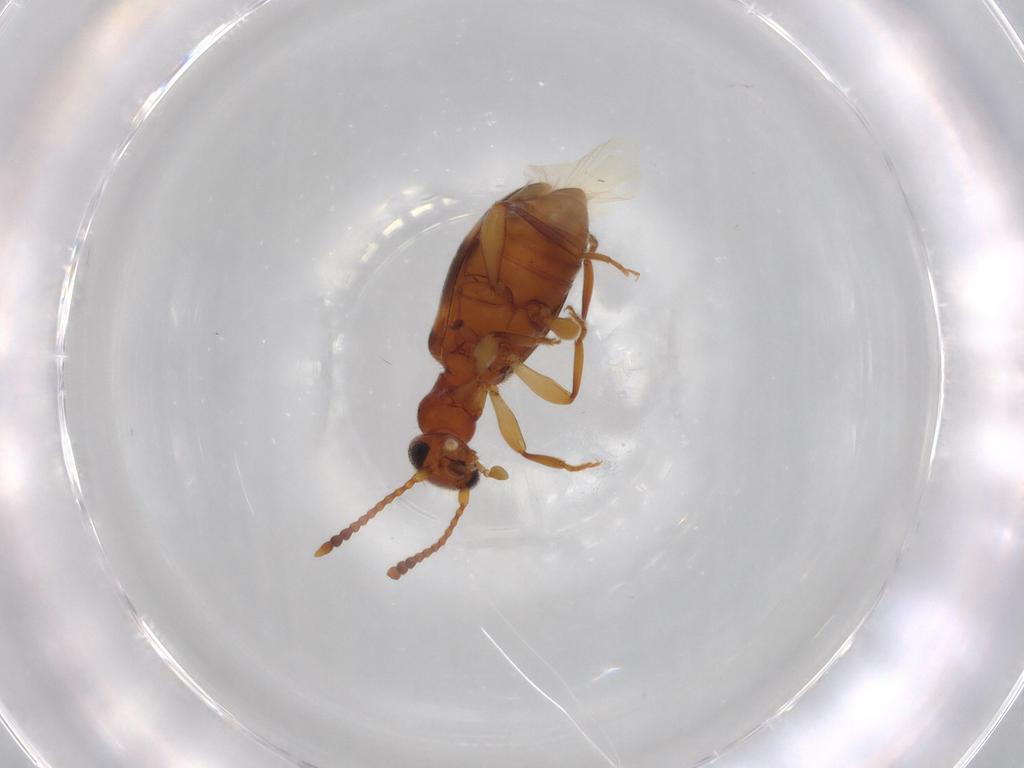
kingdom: Animalia
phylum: Arthropoda
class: Insecta
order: Coleoptera
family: Anthicidae
